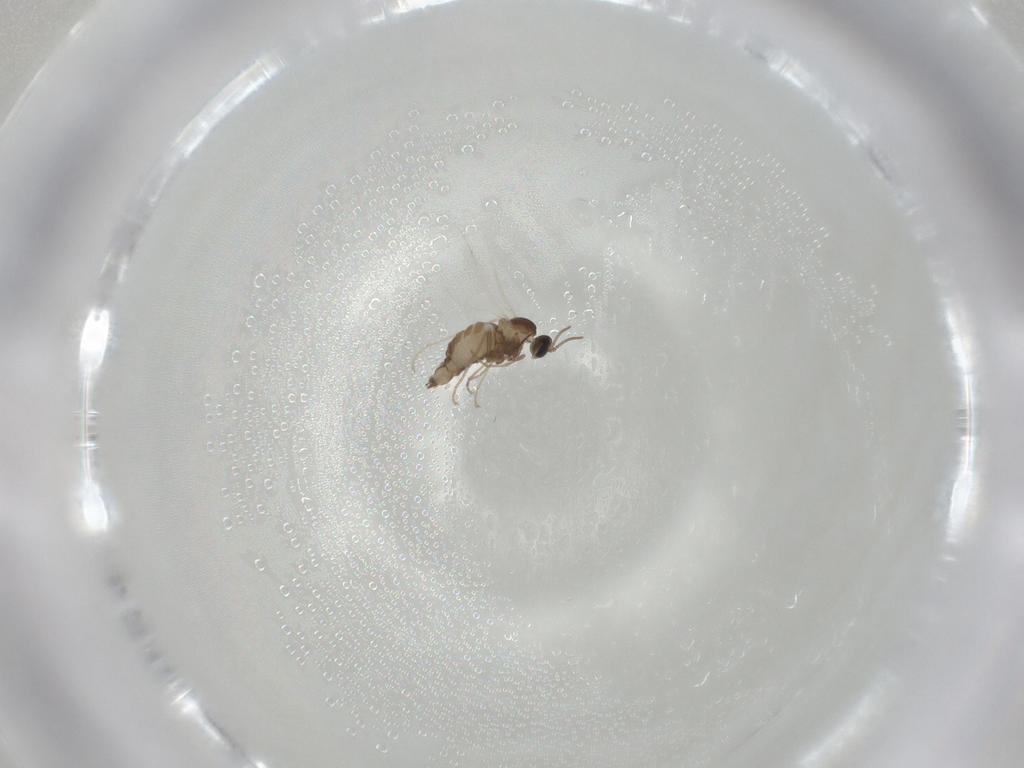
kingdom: Animalia
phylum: Arthropoda
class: Insecta
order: Diptera
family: Cecidomyiidae
